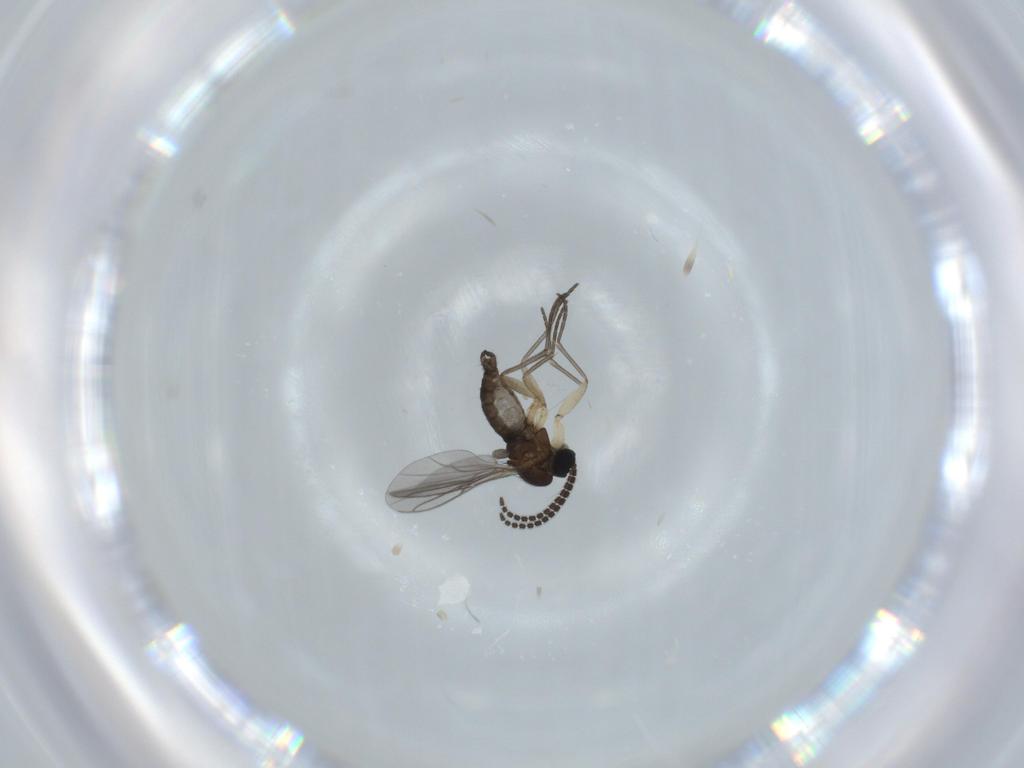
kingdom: Animalia
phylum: Arthropoda
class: Insecta
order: Diptera
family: Sciaridae
